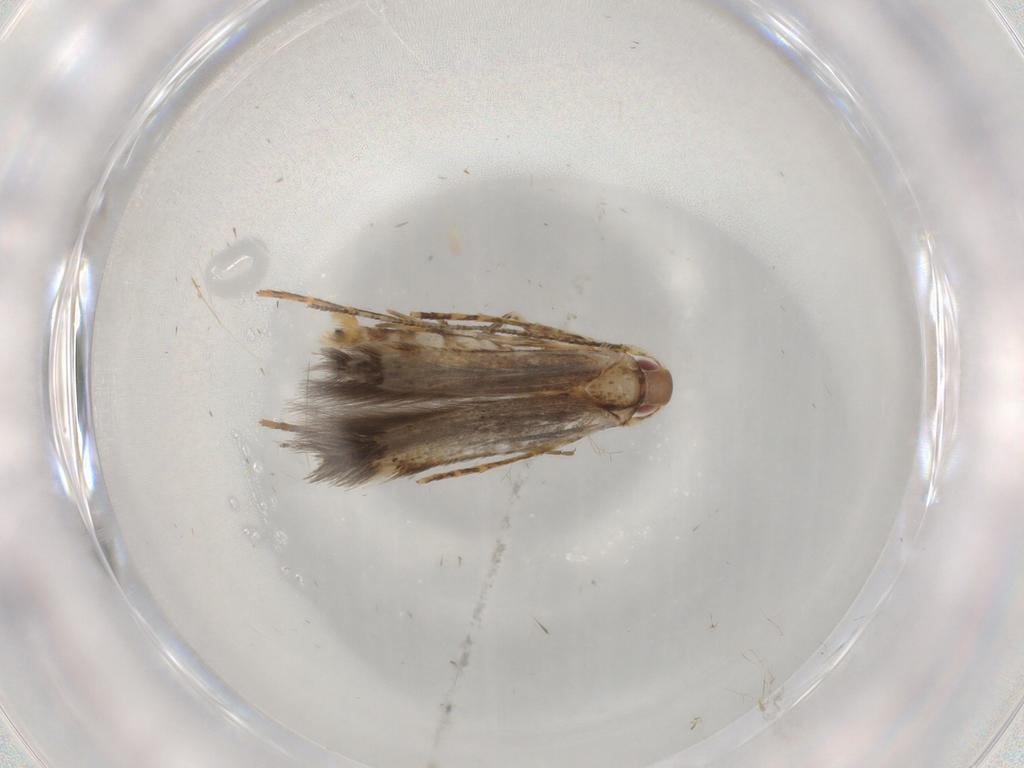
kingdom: Animalia
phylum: Arthropoda
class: Insecta
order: Lepidoptera
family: Cosmopterigidae
